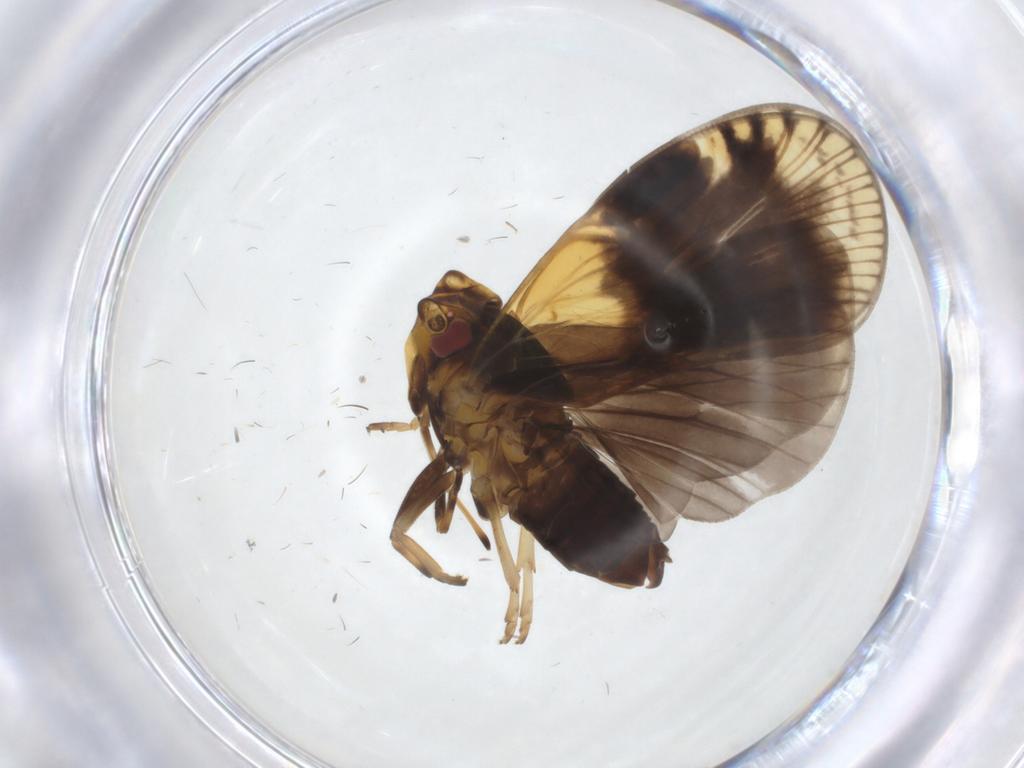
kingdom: Animalia
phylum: Arthropoda
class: Insecta
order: Hemiptera
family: Cixiidae
